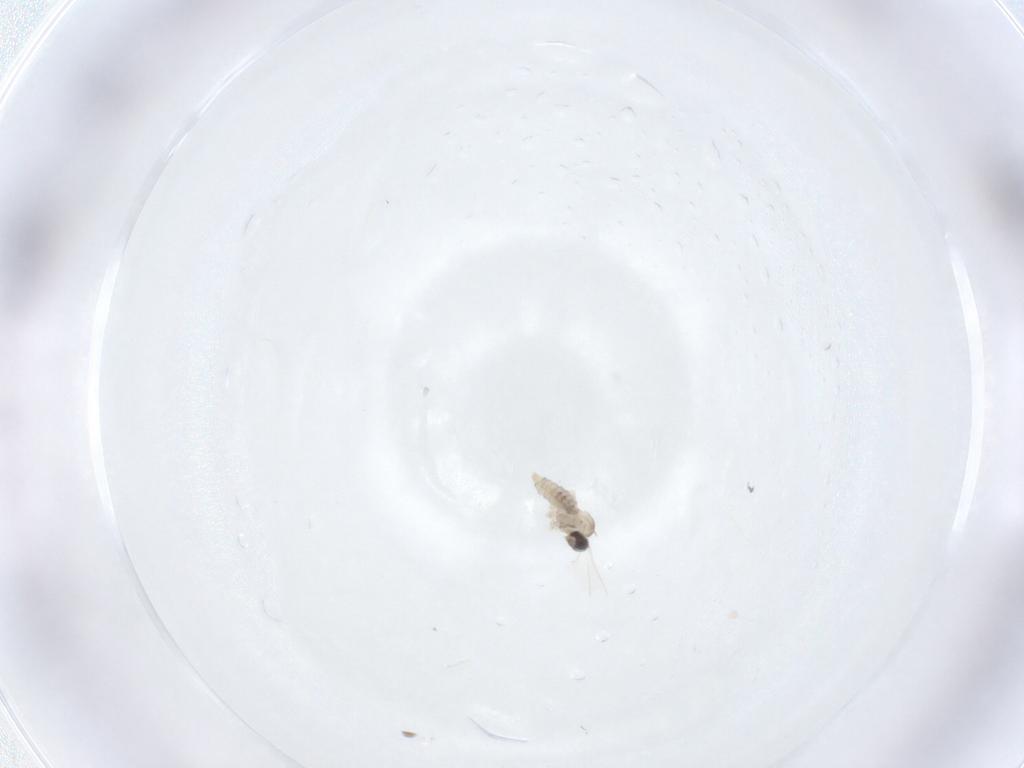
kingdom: Animalia
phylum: Arthropoda
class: Insecta
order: Diptera
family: Cecidomyiidae
